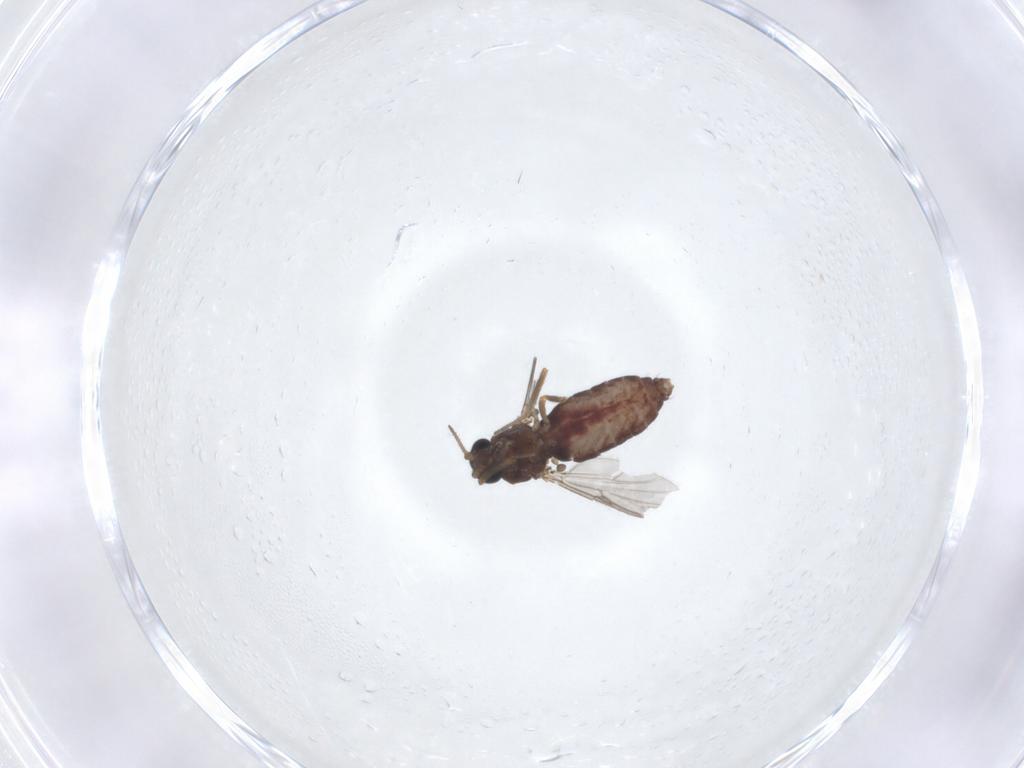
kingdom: Animalia
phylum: Arthropoda
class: Insecta
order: Diptera
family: Ceratopogonidae
